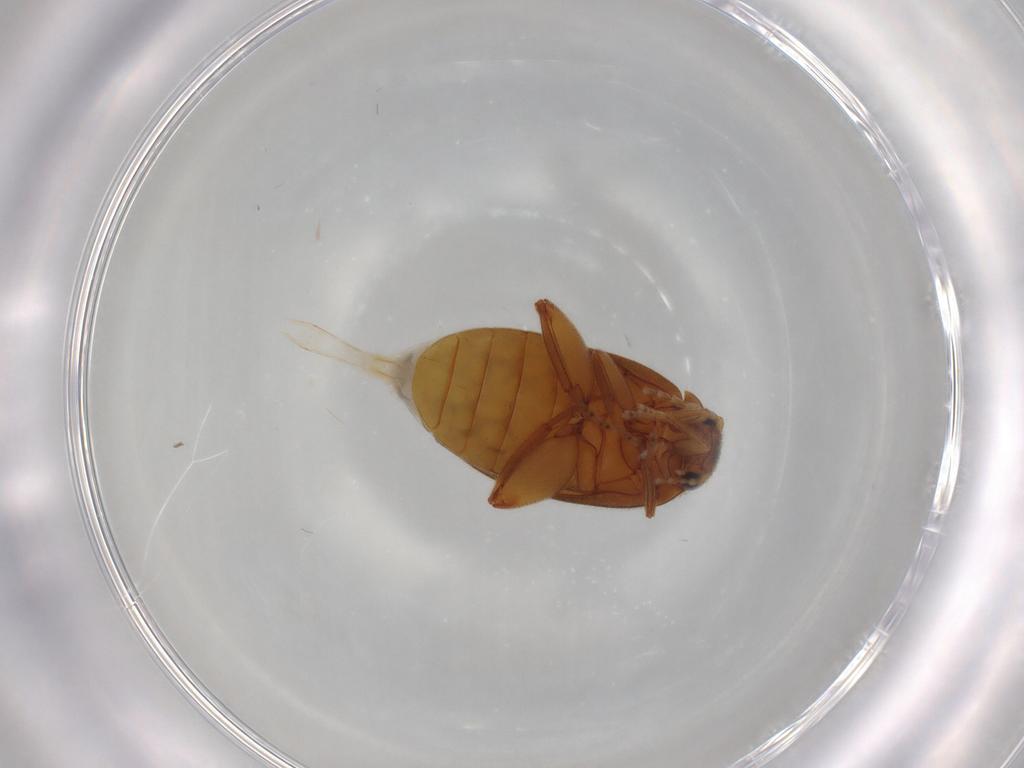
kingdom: Animalia
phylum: Arthropoda
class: Insecta
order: Coleoptera
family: Scirtidae
